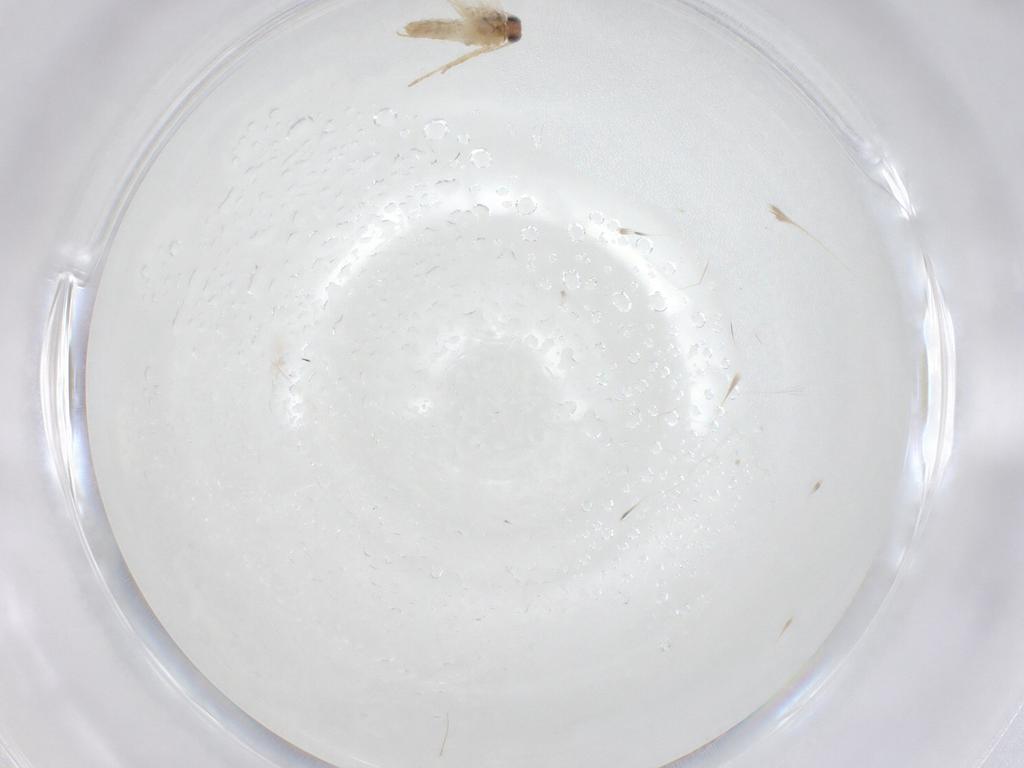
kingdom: Animalia
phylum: Arthropoda
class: Insecta
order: Lepidoptera
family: Nepticulidae
